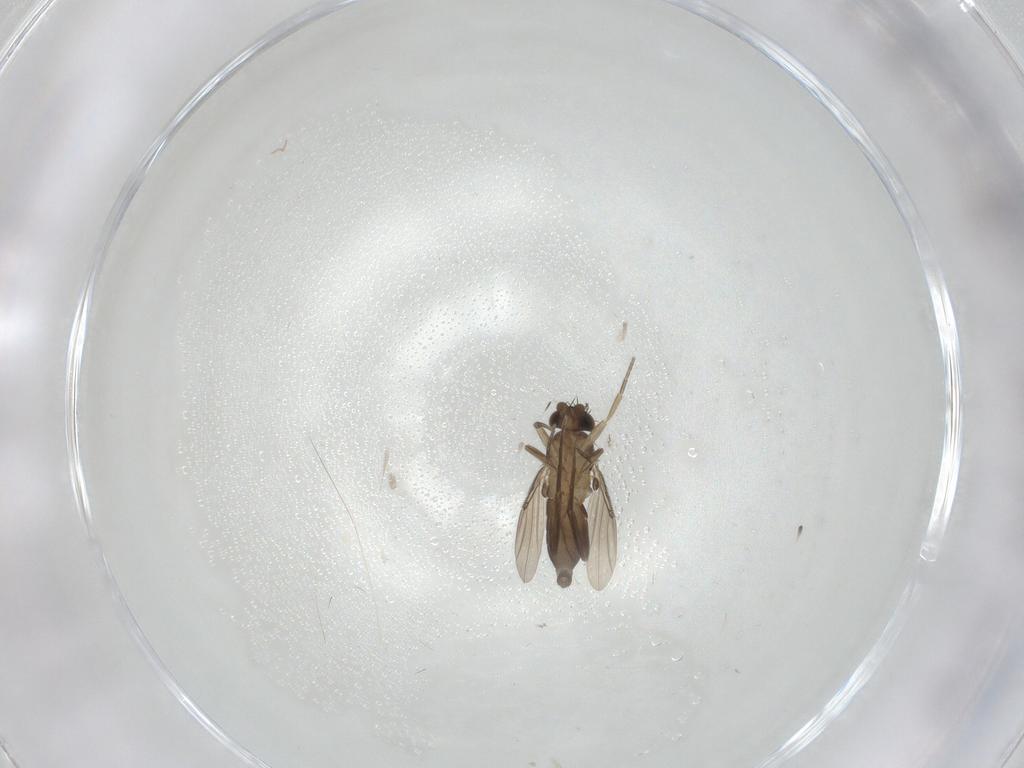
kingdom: Animalia
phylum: Arthropoda
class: Insecta
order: Diptera
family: Phoridae
